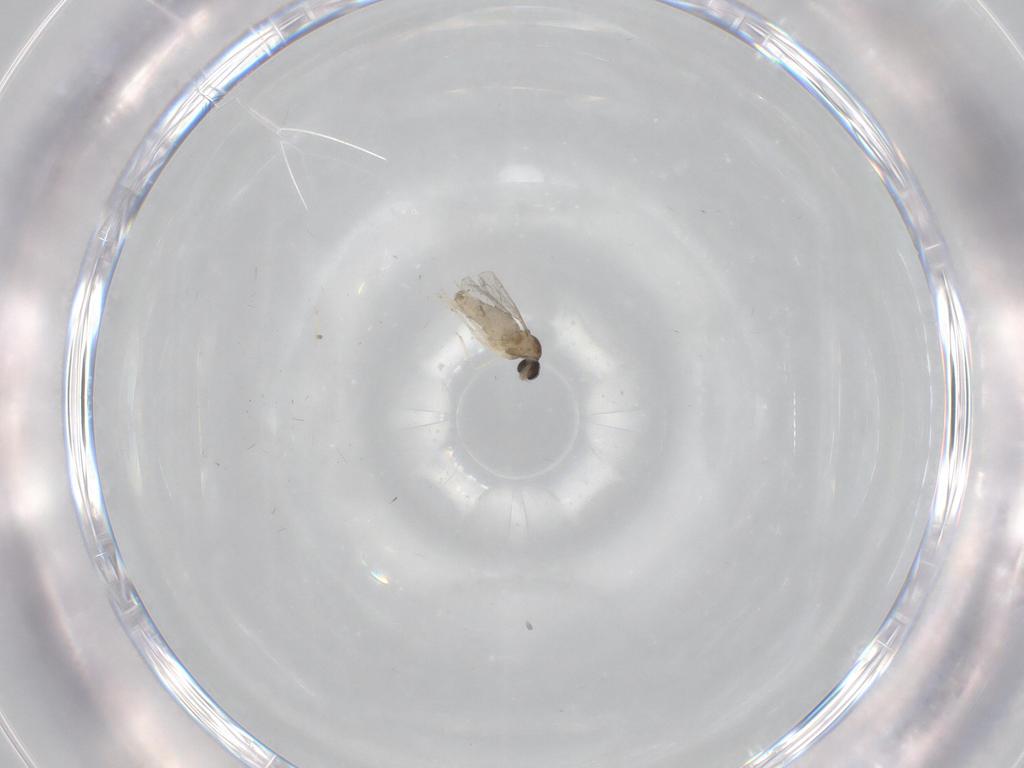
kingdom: Animalia
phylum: Arthropoda
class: Insecta
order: Diptera
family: Cecidomyiidae
